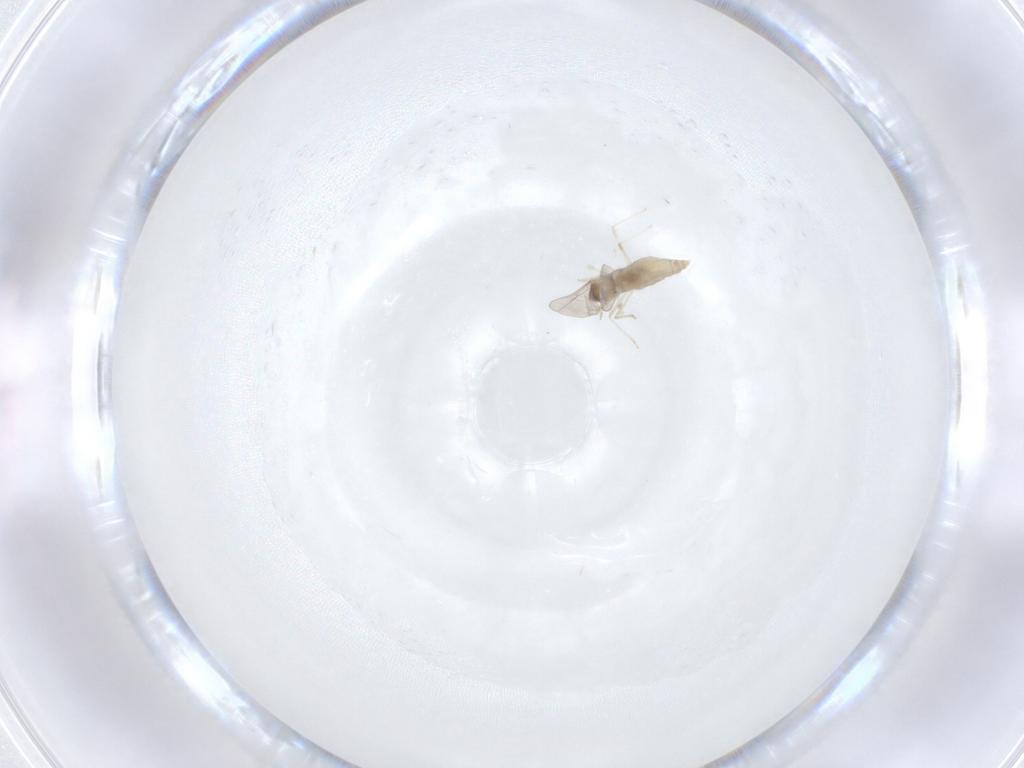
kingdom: Animalia
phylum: Arthropoda
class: Insecta
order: Diptera
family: Cecidomyiidae
